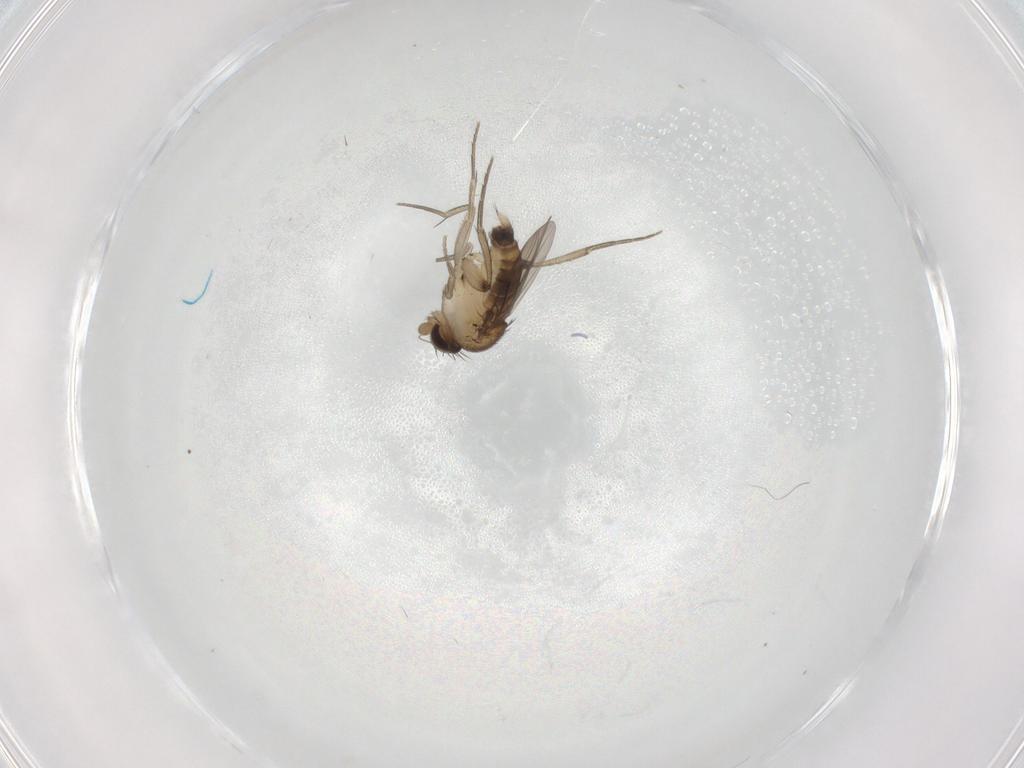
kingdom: Animalia
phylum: Arthropoda
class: Insecta
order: Diptera
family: Phoridae
